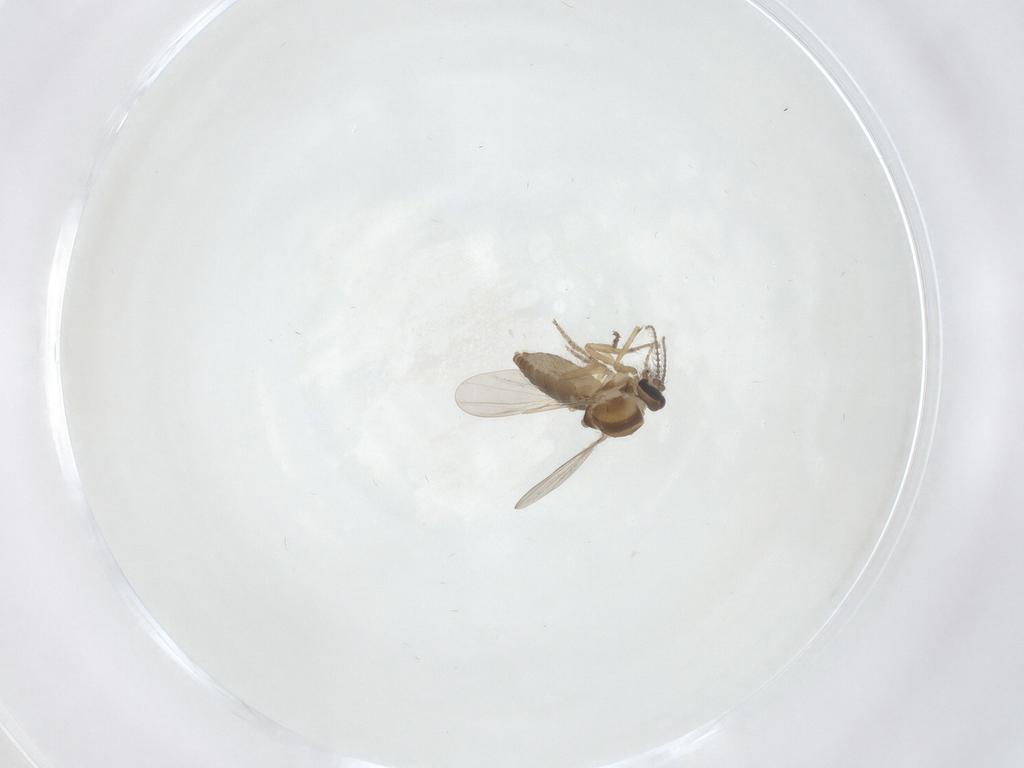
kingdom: Animalia
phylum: Arthropoda
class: Insecta
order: Diptera
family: Ceratopogonidae
